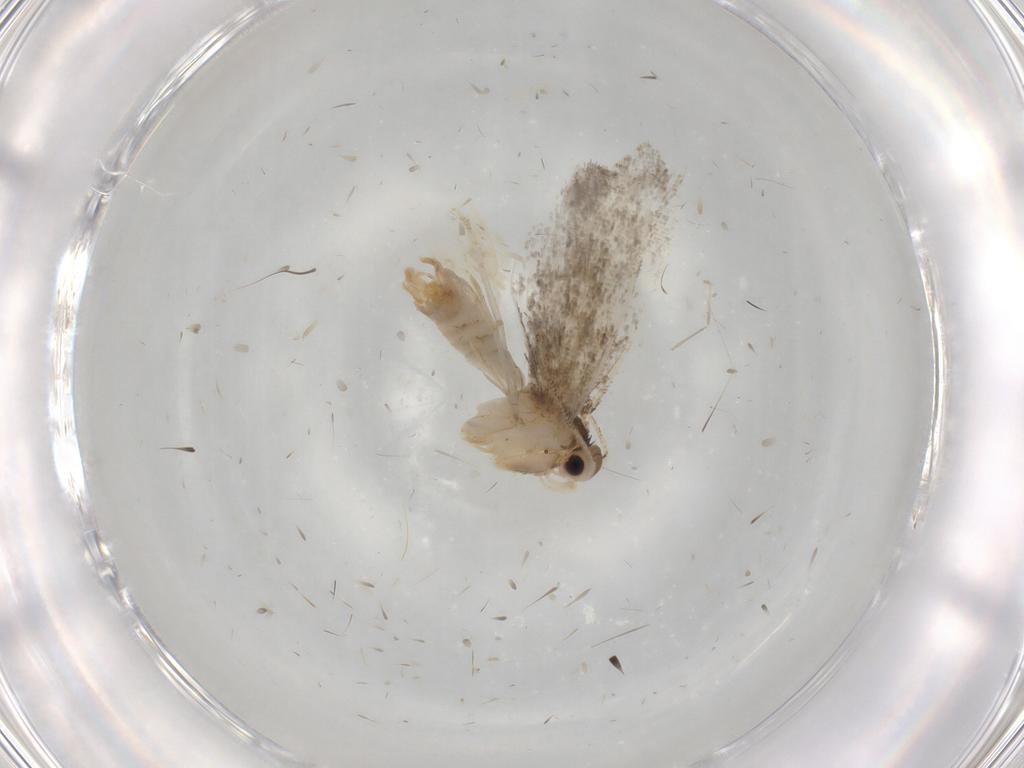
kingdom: Animalia
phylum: Arthropoda
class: Insecta
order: Lepidoptera
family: Tineidae
